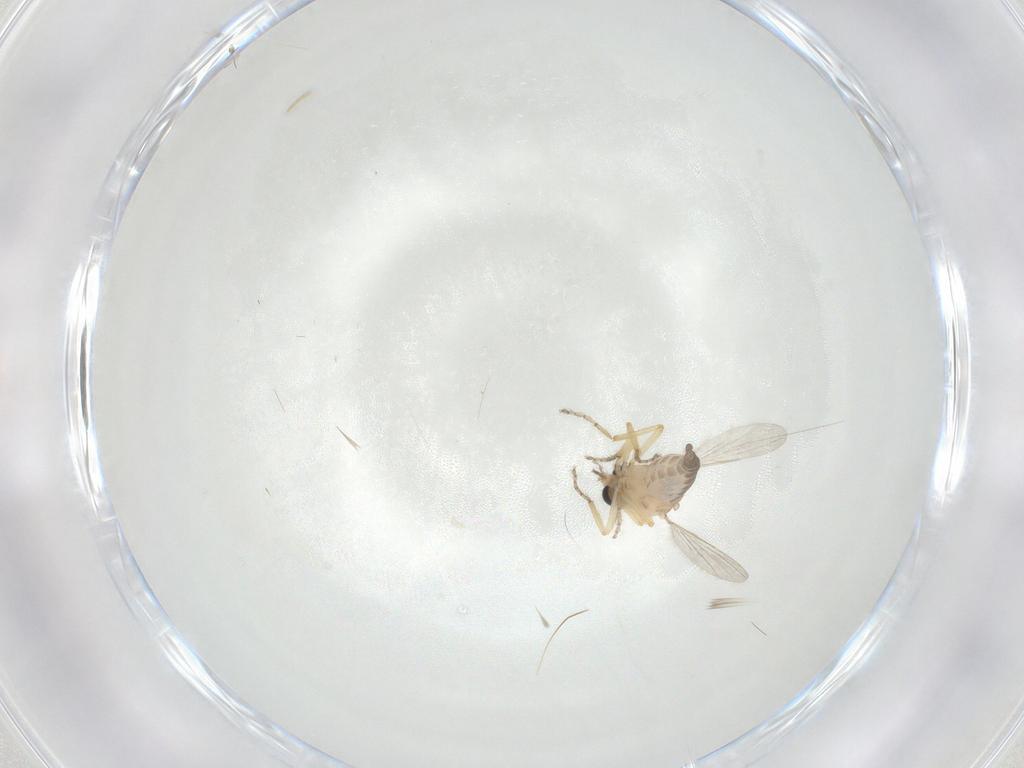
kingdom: Animalia
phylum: Arthropoda
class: Insecta
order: Diptera
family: Ceratopogonidae
